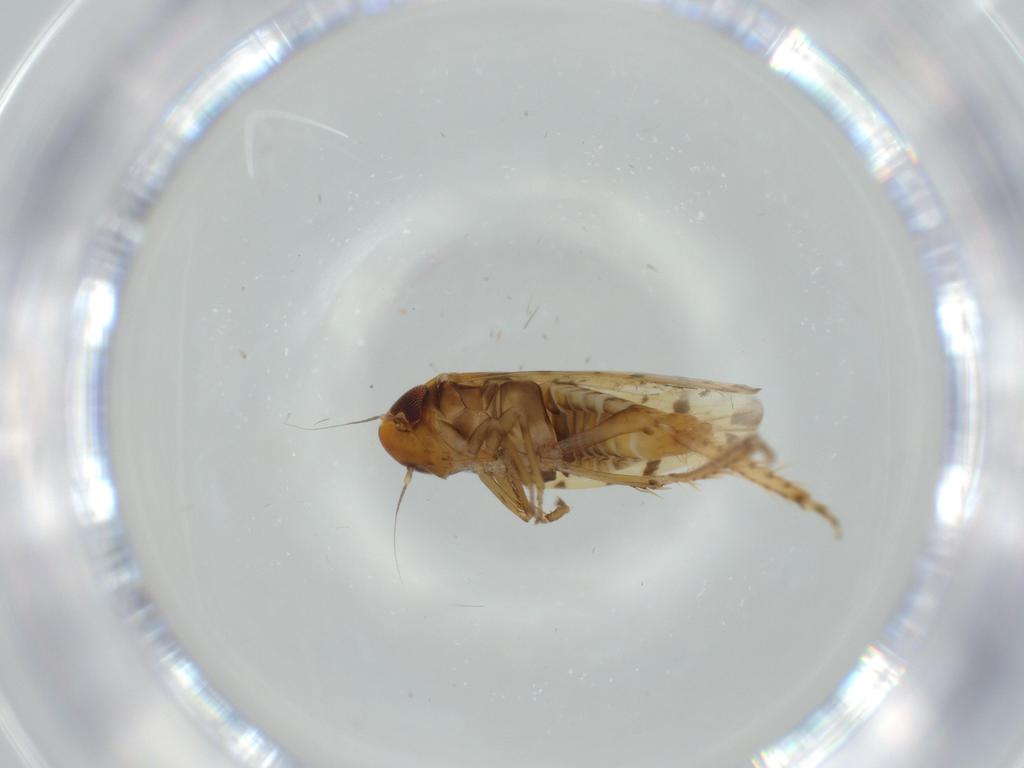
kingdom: Animalia
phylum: Arthropoda
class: Insecta
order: Hemiptera
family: Cicadellidae
